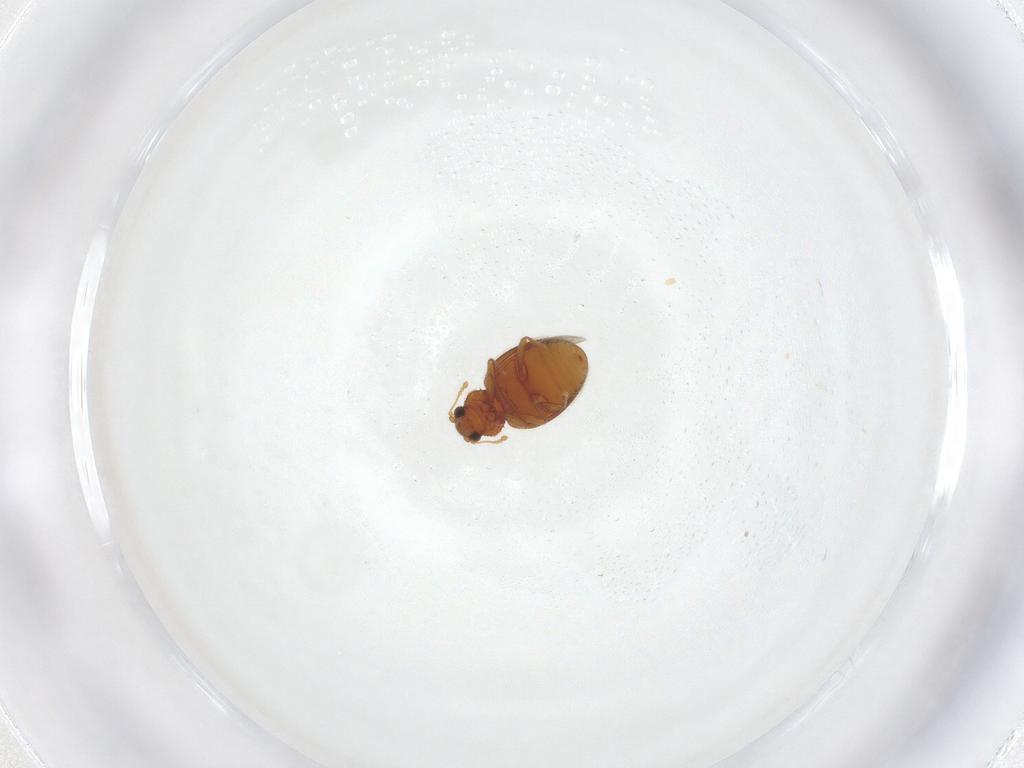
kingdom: Animalia
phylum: Arthropoda
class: Insecta
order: Coleoptera
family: Latridiidae
